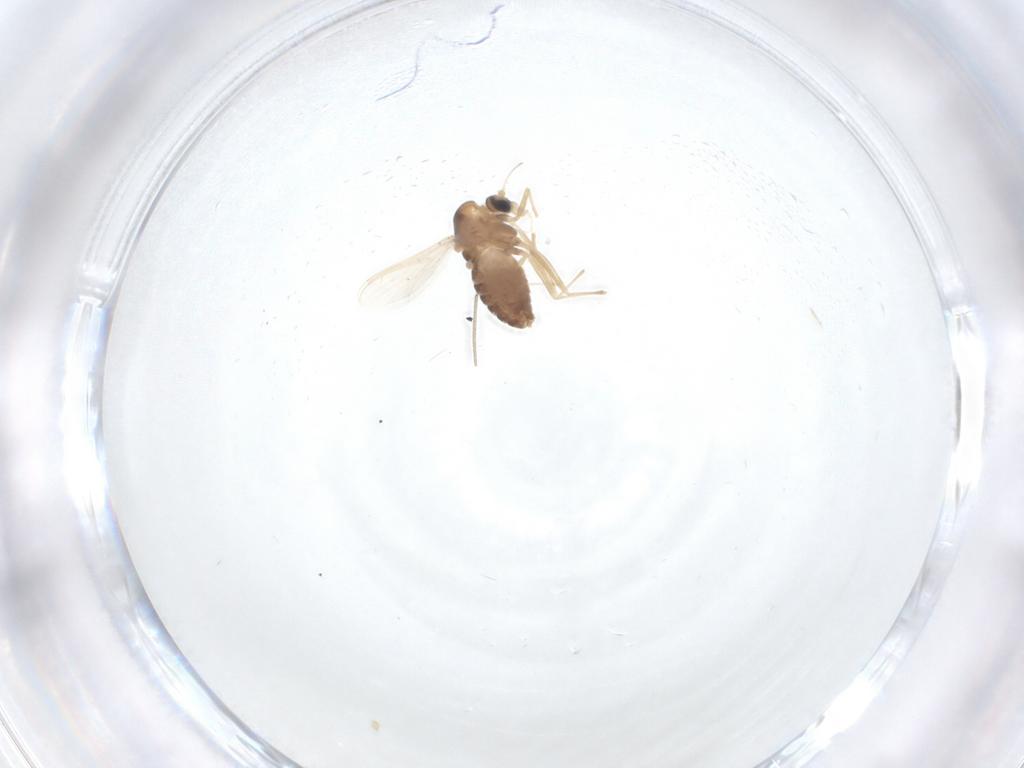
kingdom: Animalia
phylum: Arthropoda
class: Insecta
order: Diptera
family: Chironomidae
